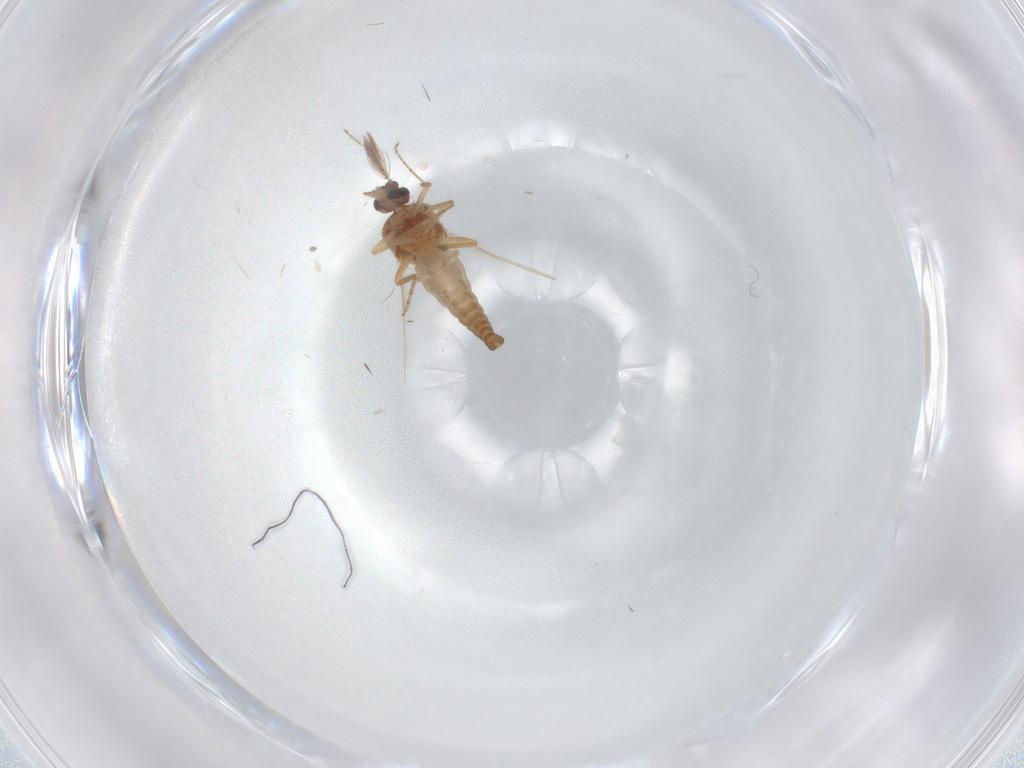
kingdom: Animalia
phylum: Arthropoda
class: Insecta
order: Diptera
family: Ceratopogonidae
